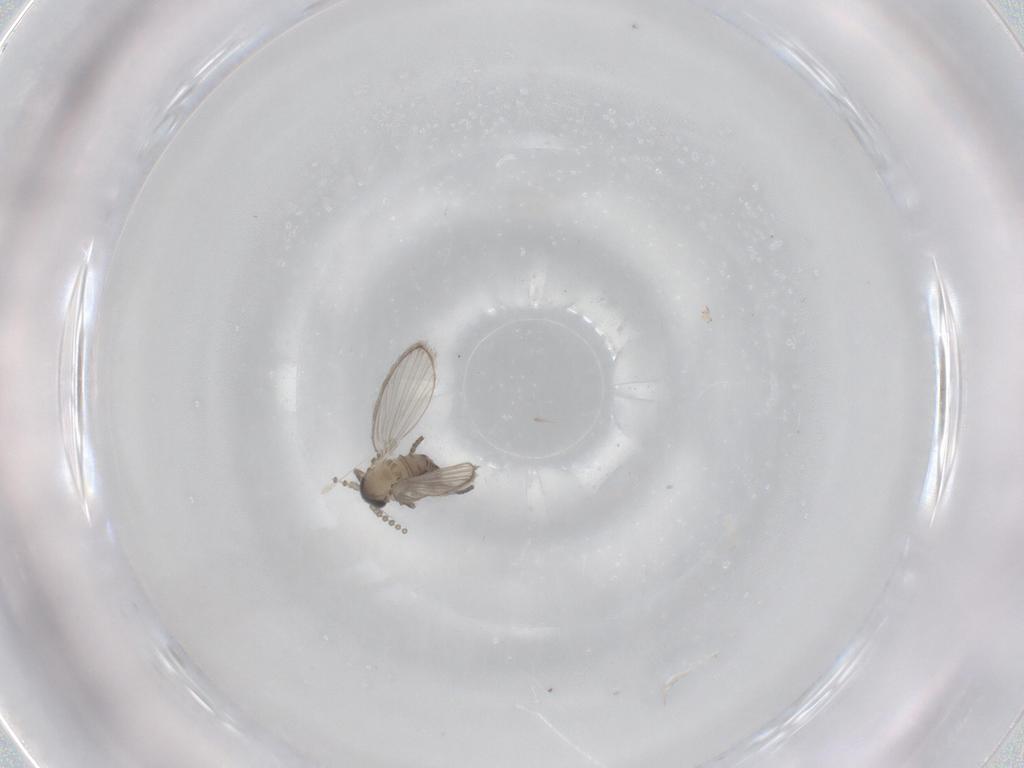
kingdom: Animalia
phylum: Arthropoda
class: Insecta
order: Diptera
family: Psychodidae
